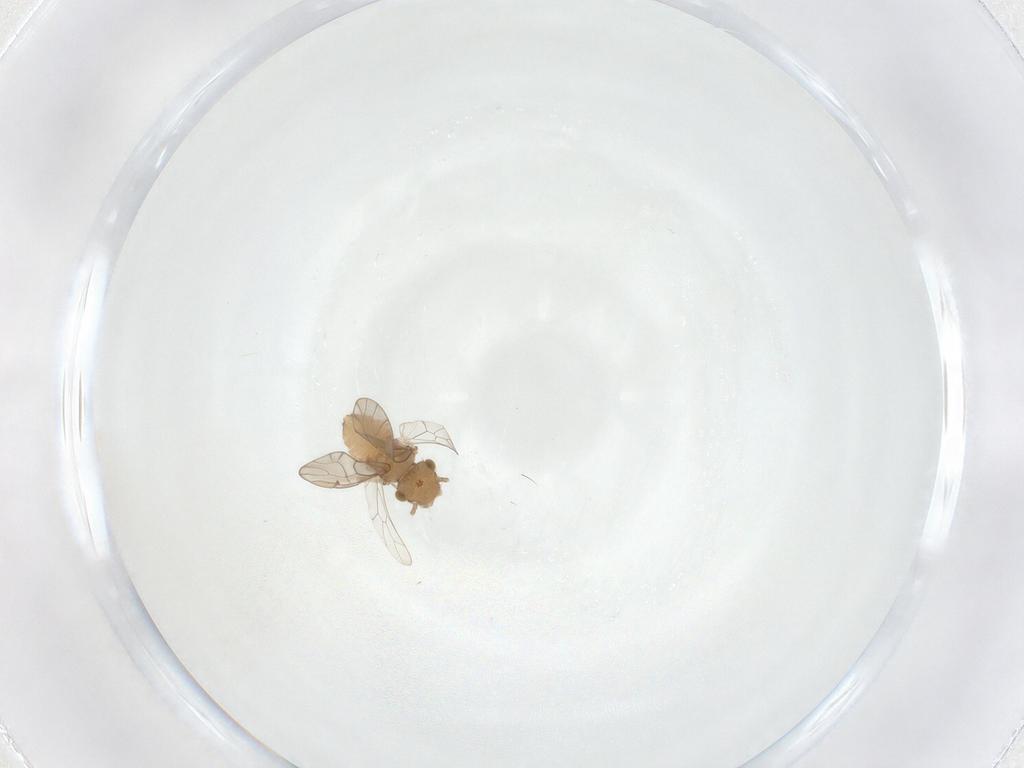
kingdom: Animalia
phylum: Arthropoda
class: Insecta
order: Psocodea
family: Ectopsocidae
